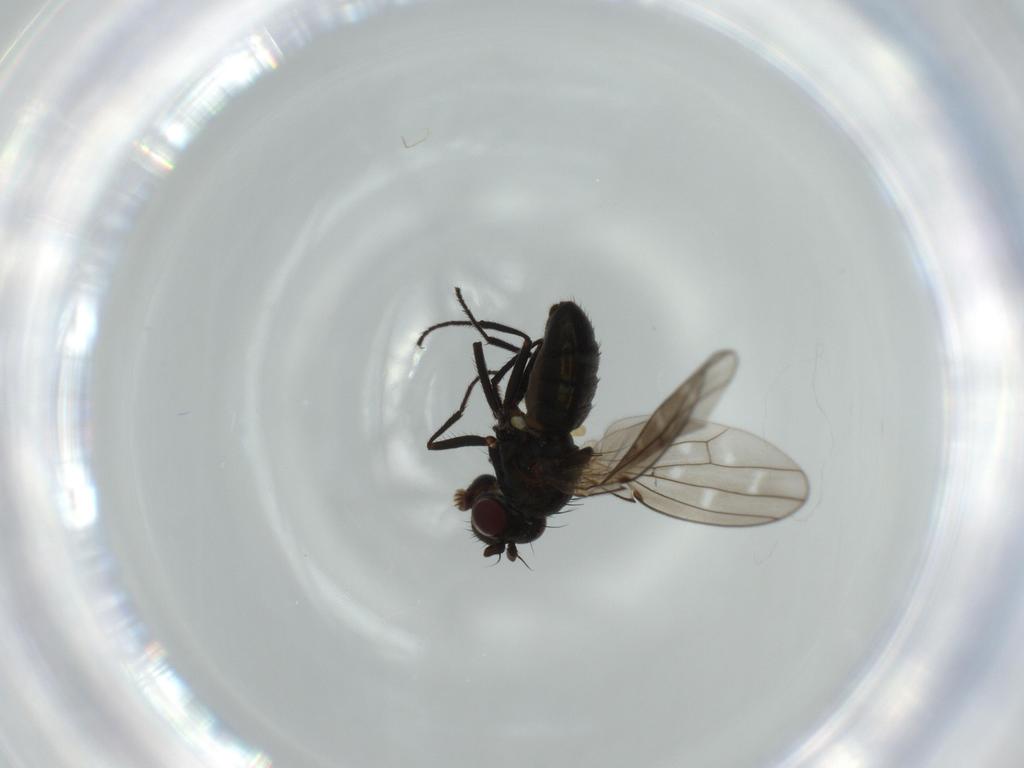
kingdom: Animalia
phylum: Arthropoda
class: Insecta
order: Diptera
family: Ephydridae
